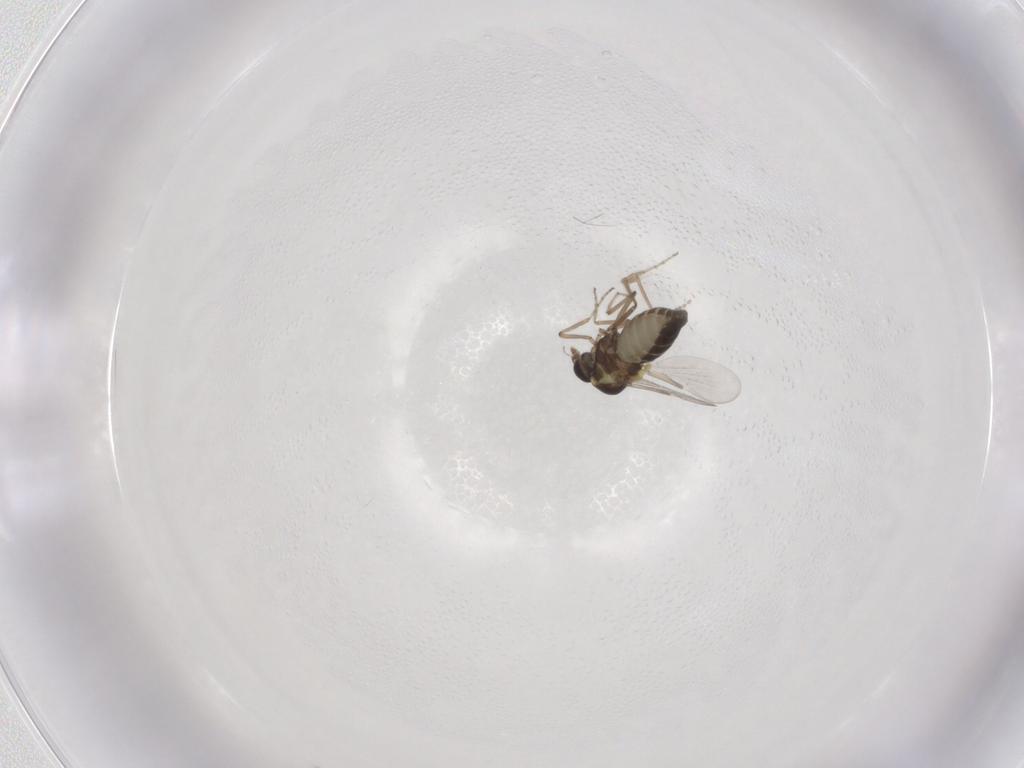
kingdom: Animalia
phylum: Arthropoda
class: Insecta
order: Diptera
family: Ceratopogonidae
